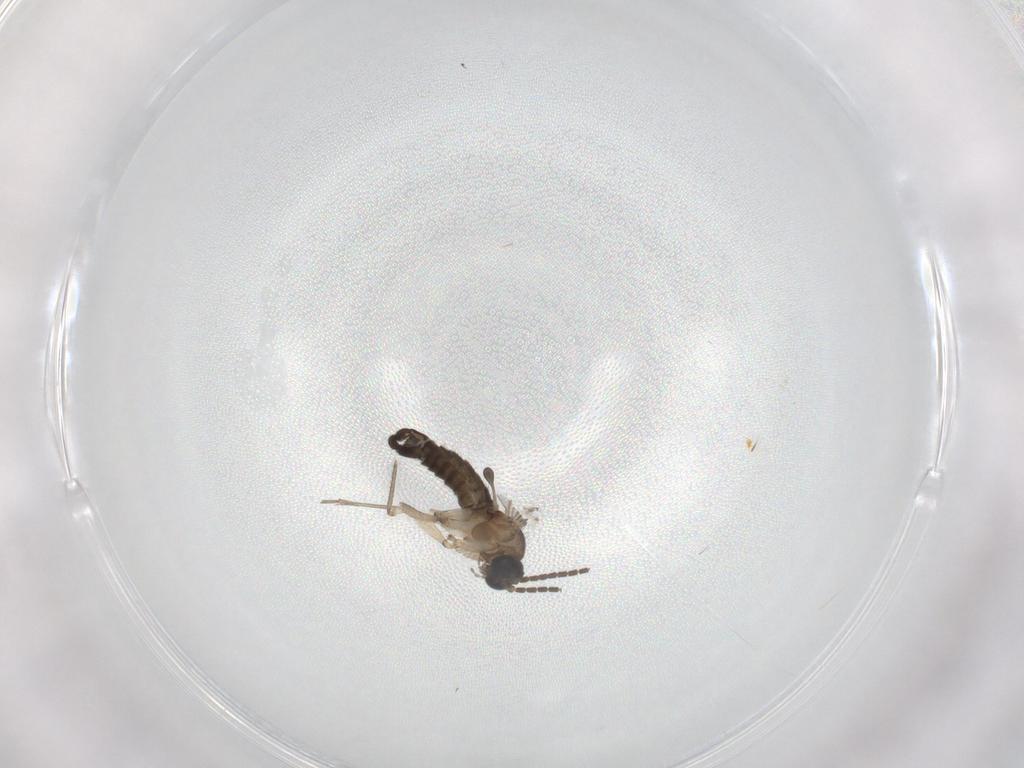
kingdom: Animalia
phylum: Arthropoda
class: Insecta
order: Diptera
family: Sciaridae
